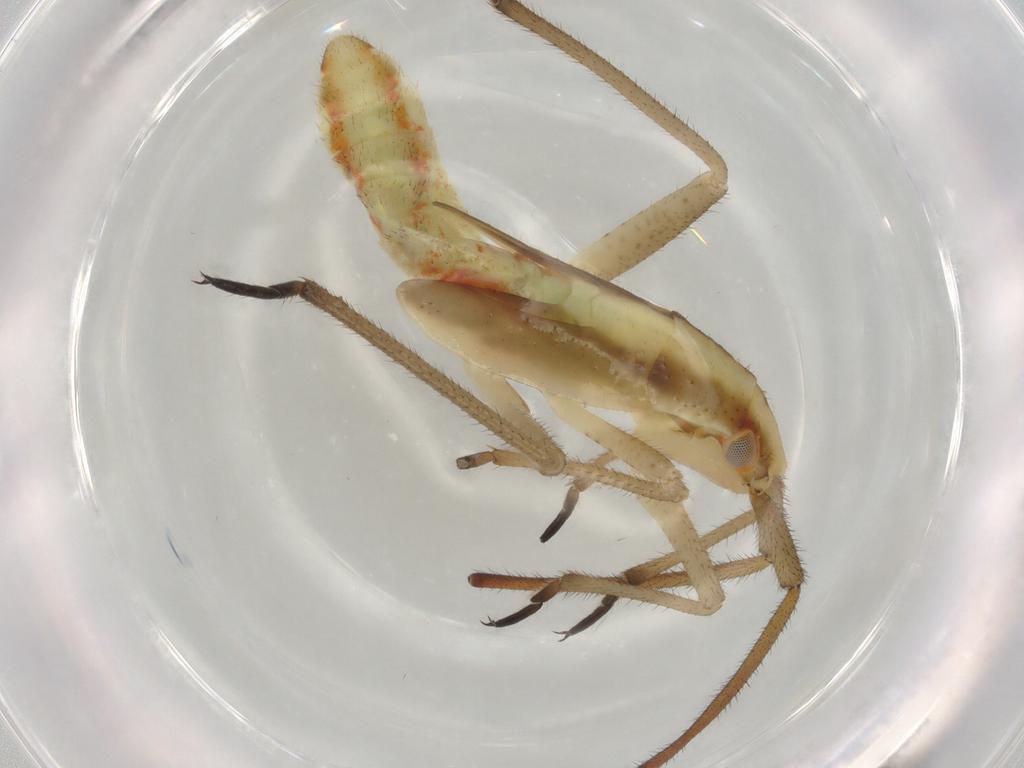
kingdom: Animalia
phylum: Arthropoda
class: Insecta
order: Hemiptera
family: Miridae
